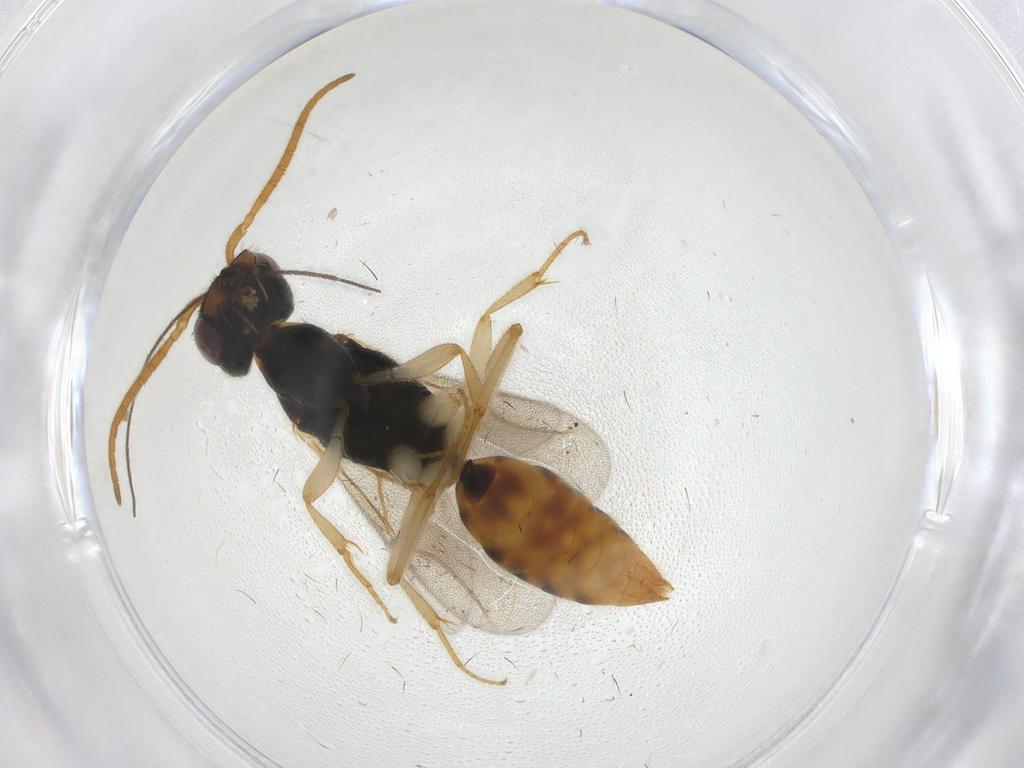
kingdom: Animalia
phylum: Arthropoda
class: Insecta
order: Hymenoptera
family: Bethylidae
